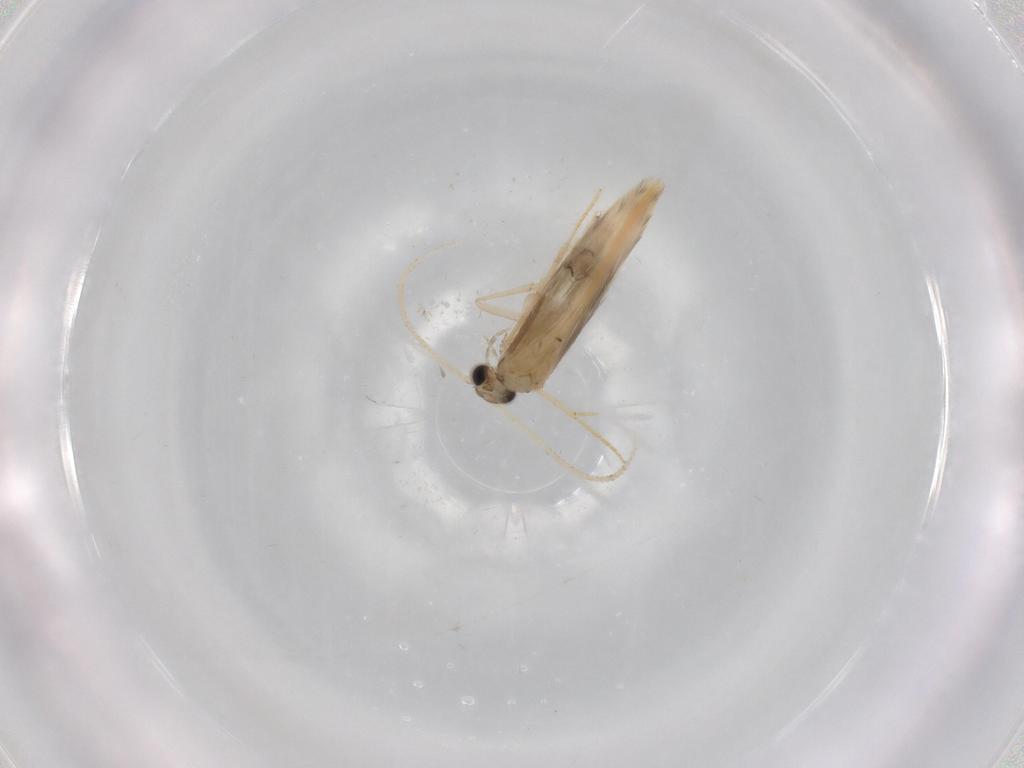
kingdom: Animalia
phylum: Arthropoda
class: Insecta
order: Trichoptera
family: Hydroptilidae
